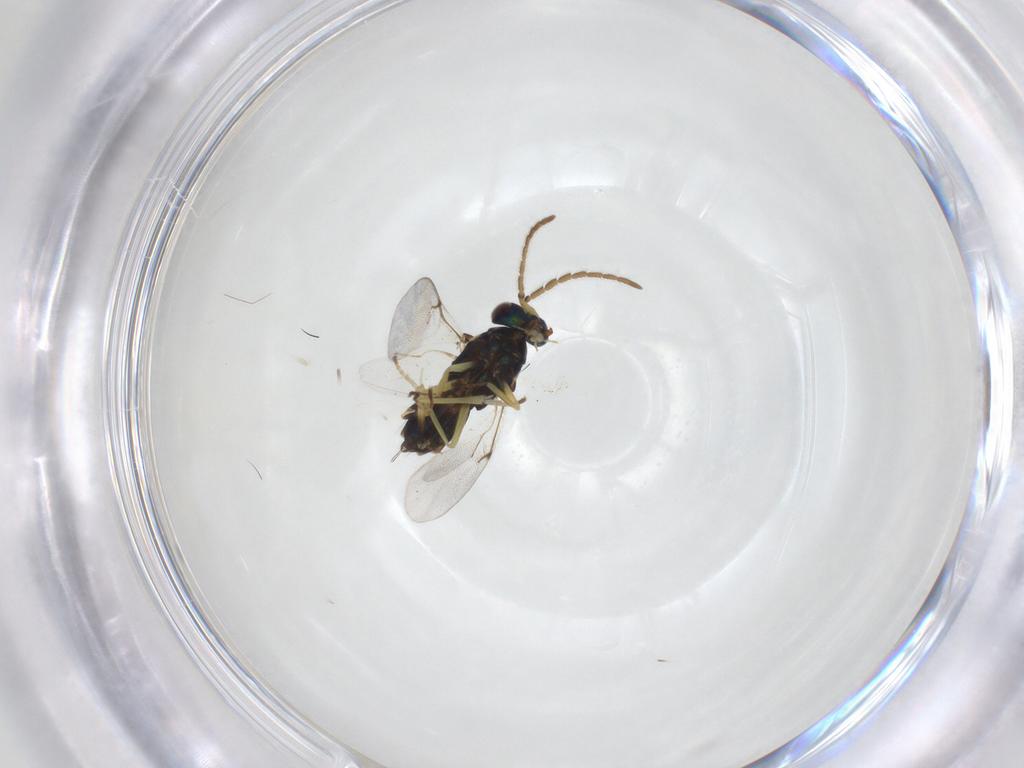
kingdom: Animalia
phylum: Arthropoda
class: Insecta
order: Hymenoptera
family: Encyrtidae
